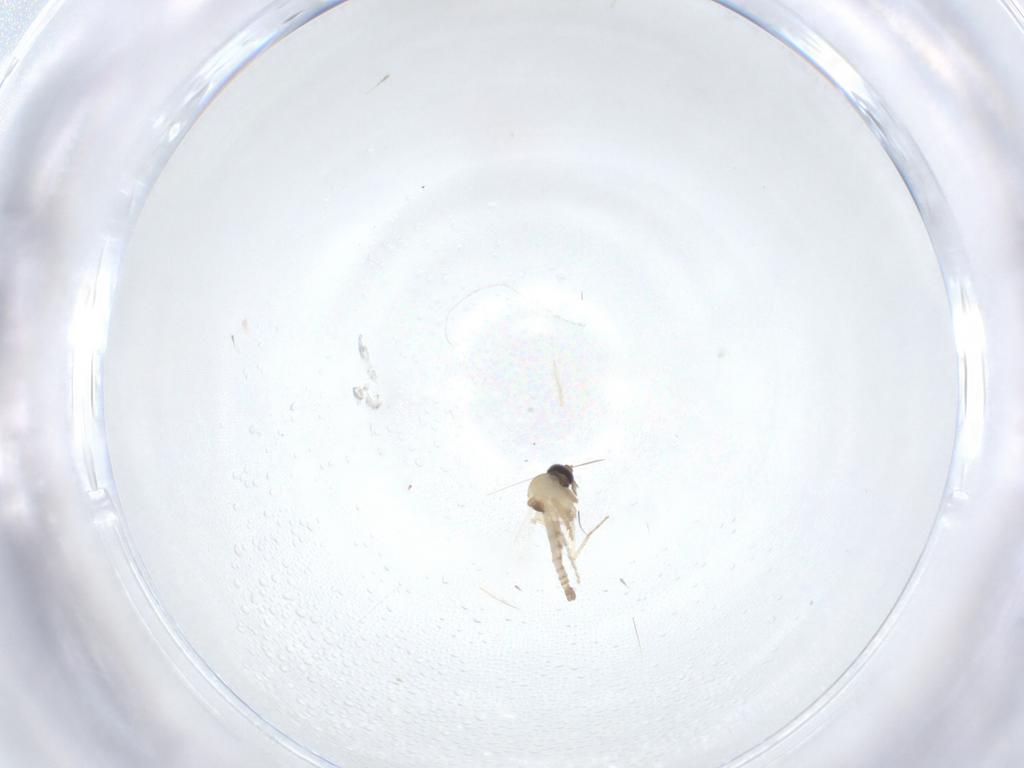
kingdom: Animalia
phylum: Arthropoda
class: Insecta
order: Diptera
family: Ceratopogonidae
